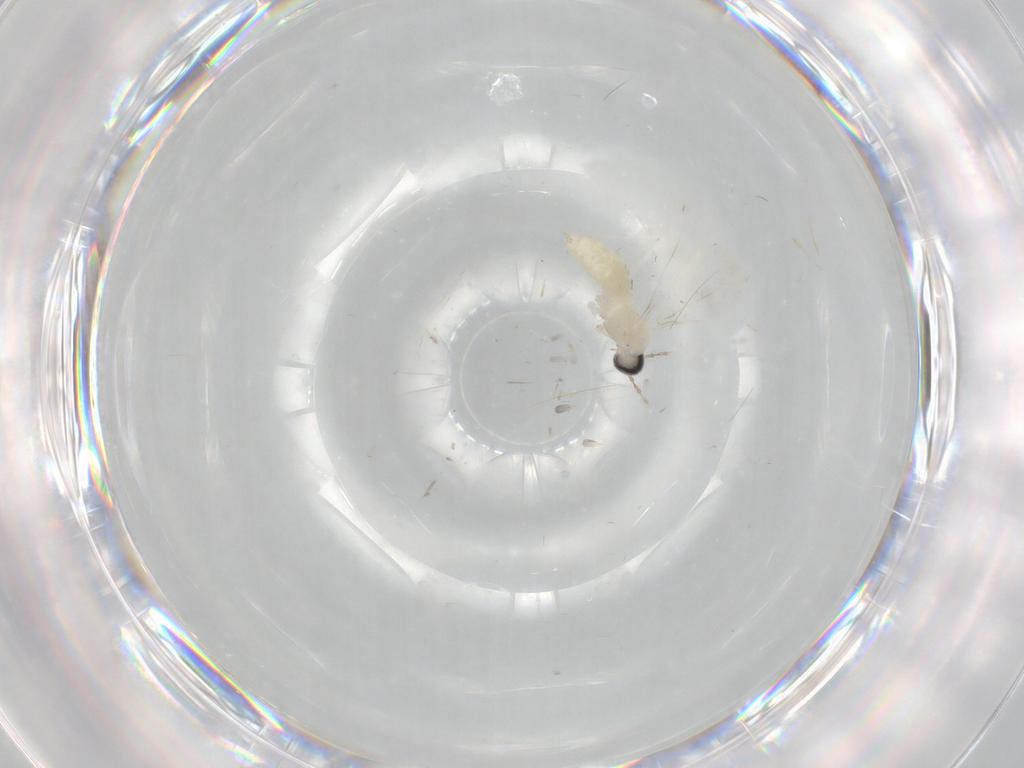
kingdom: Animalia
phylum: Arthropoda
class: Insecta
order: Diptera
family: Cecidomyiidae
